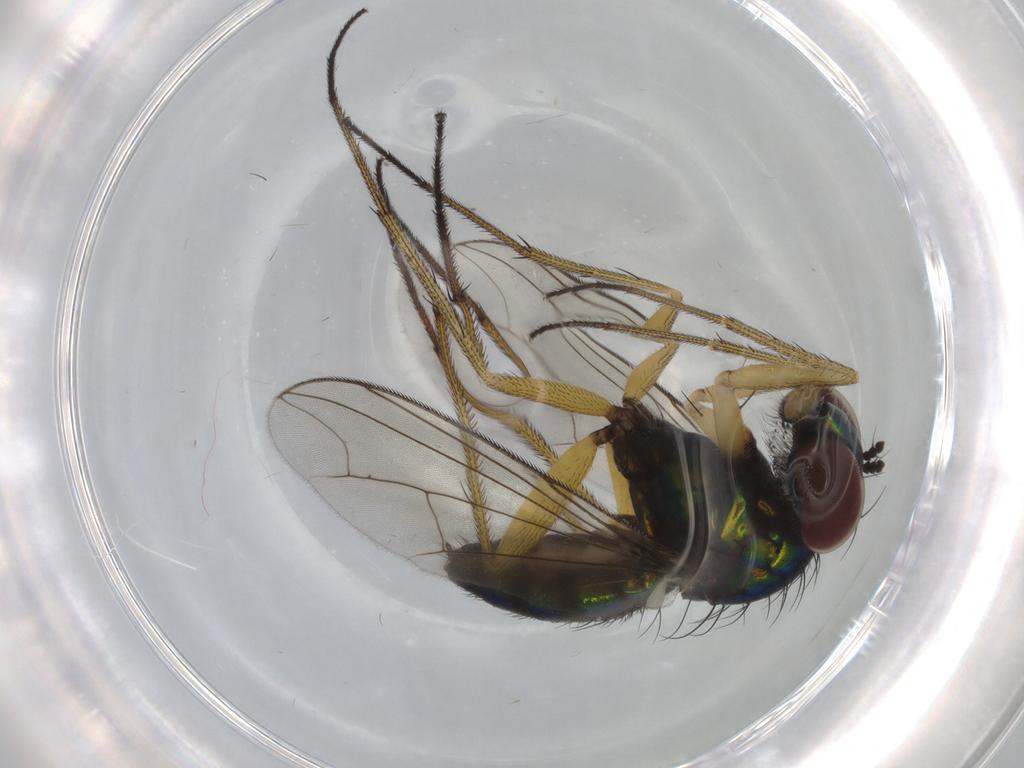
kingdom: Animalia
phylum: Arthropoda
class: Insecta
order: Diptera
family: Dolichopodidae
